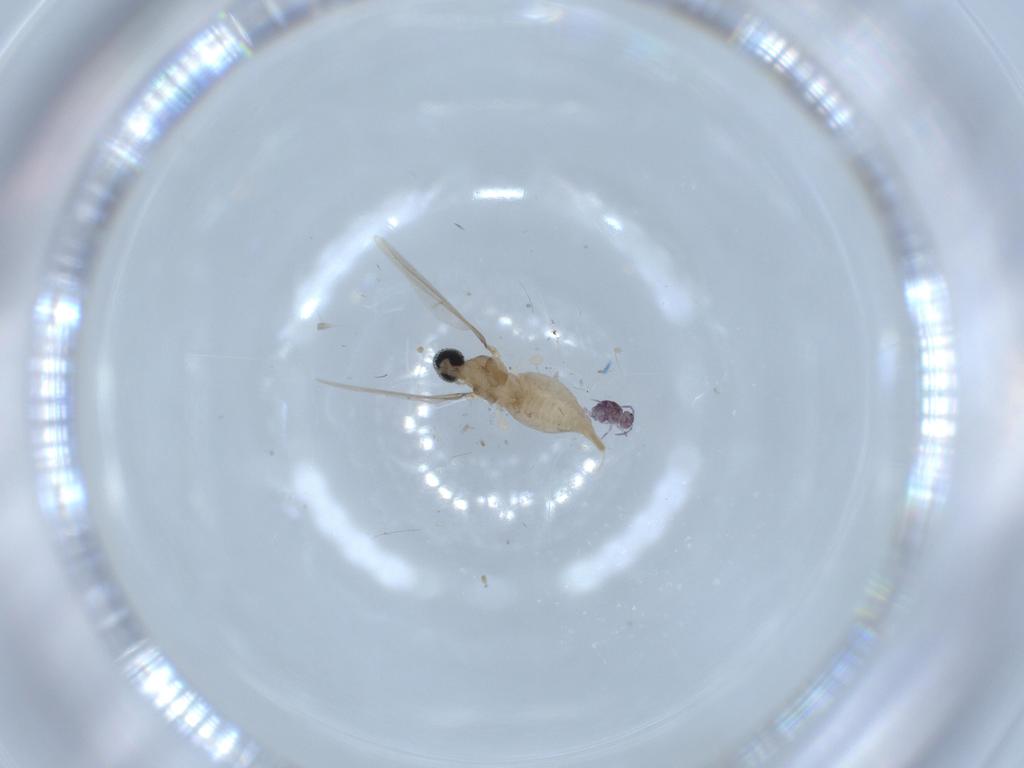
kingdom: Animalia
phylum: Arthropoda
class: Insecta
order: Diptera
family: Cecidomyiidae
